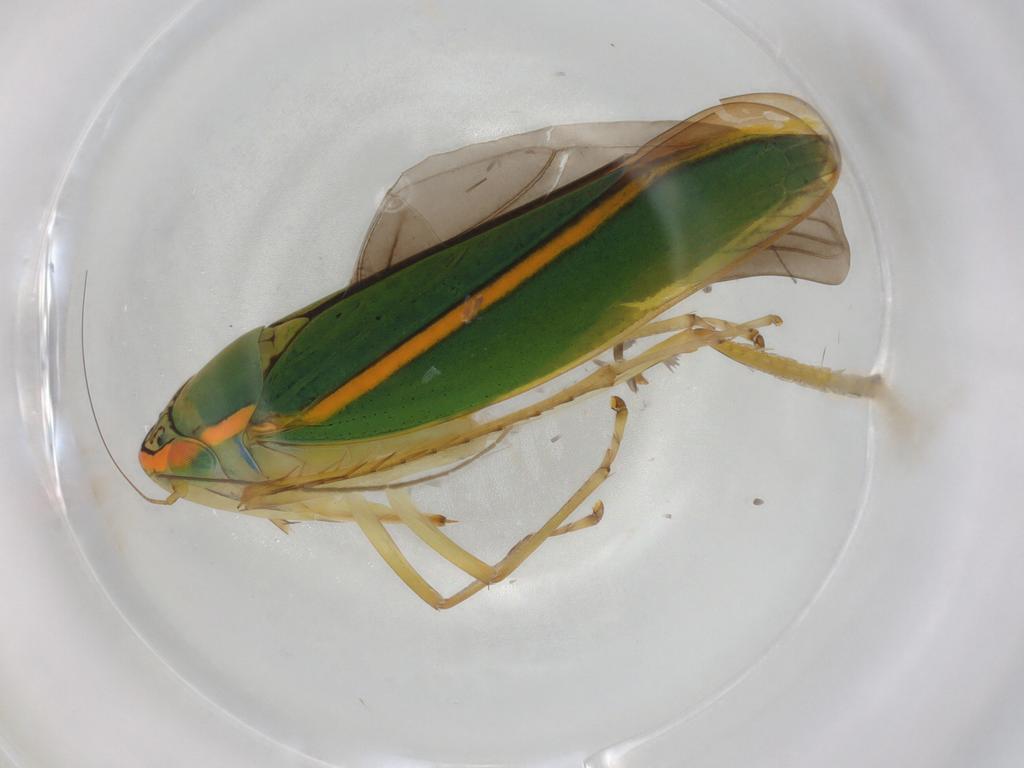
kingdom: Animalia
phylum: Arthropoda
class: Insecta
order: Hemiptera
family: Cicadellidae
